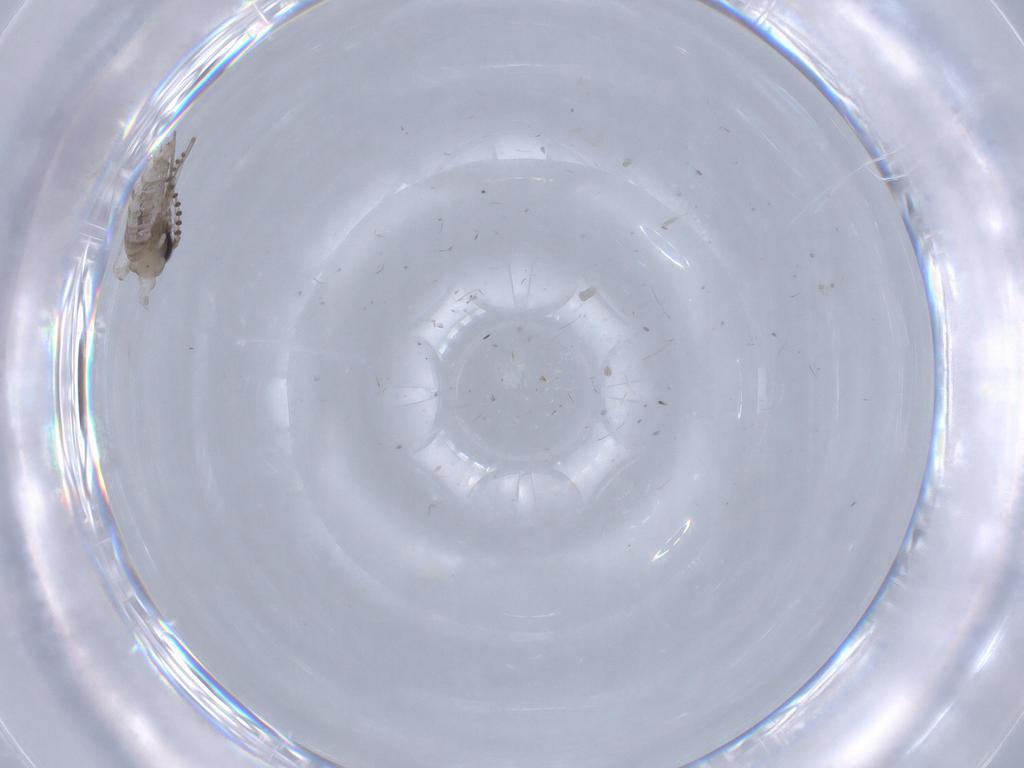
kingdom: Animalia
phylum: Arthropoda
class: Insecta
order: Diptera
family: Psychodidae
